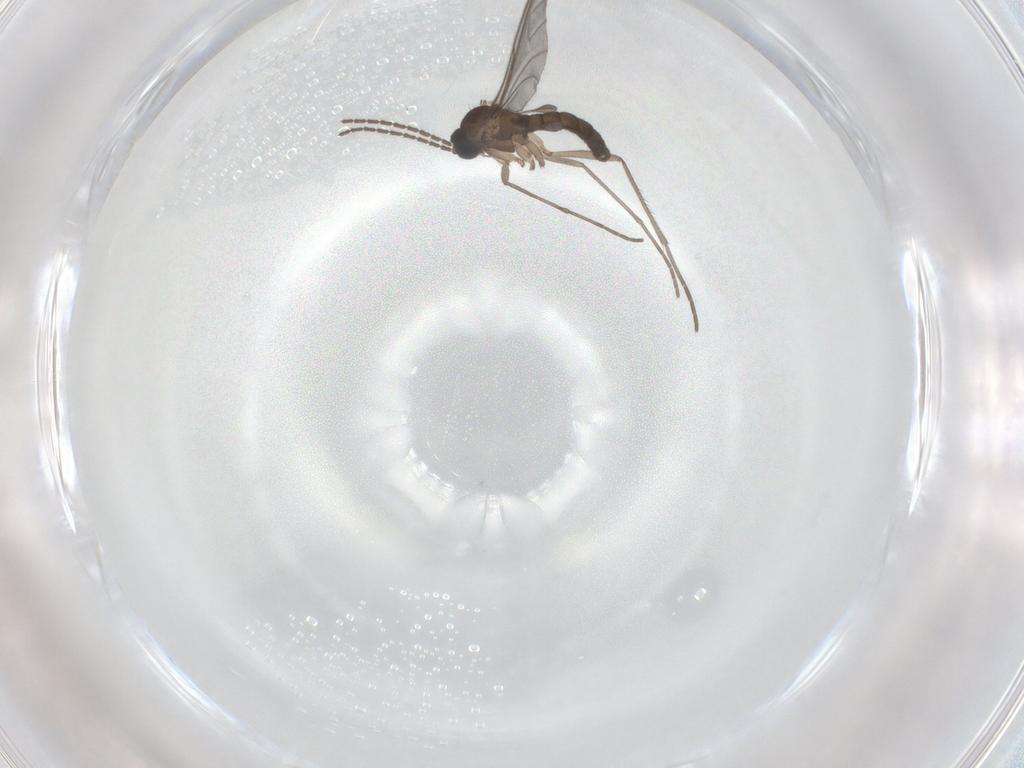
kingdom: Animalia
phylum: Arthropoda
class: Insecta
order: Diptera
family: Sciaridae
